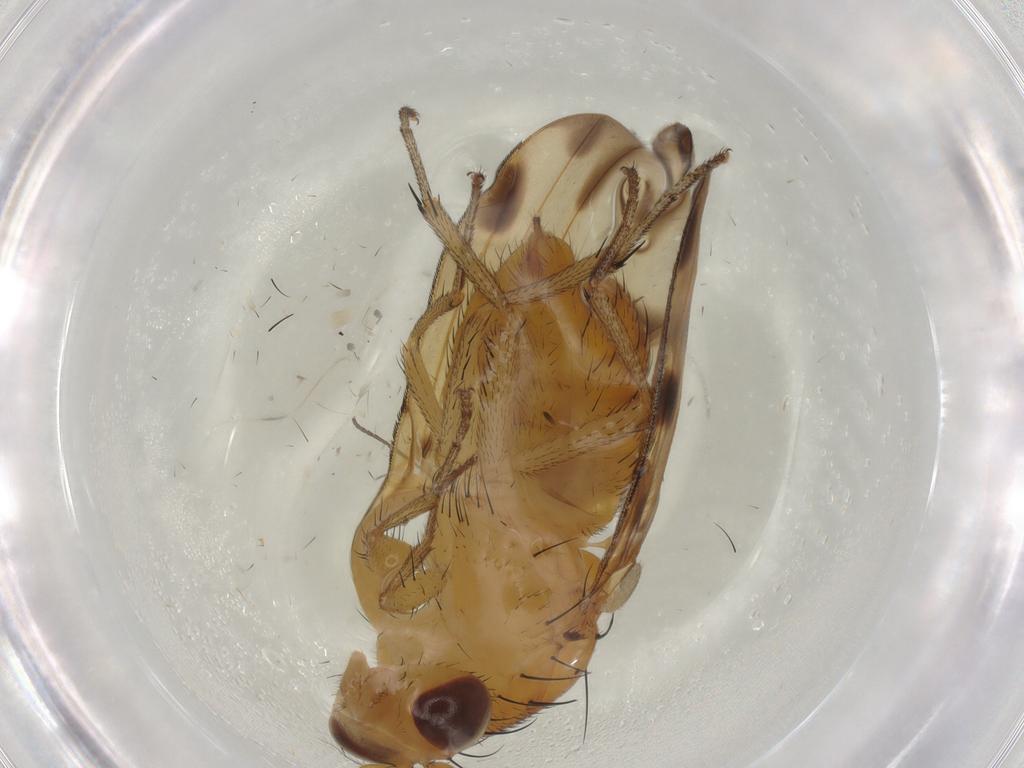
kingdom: Animalia
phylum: Arthropoda
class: Insecta
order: Diptera
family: Lauxaniidae
